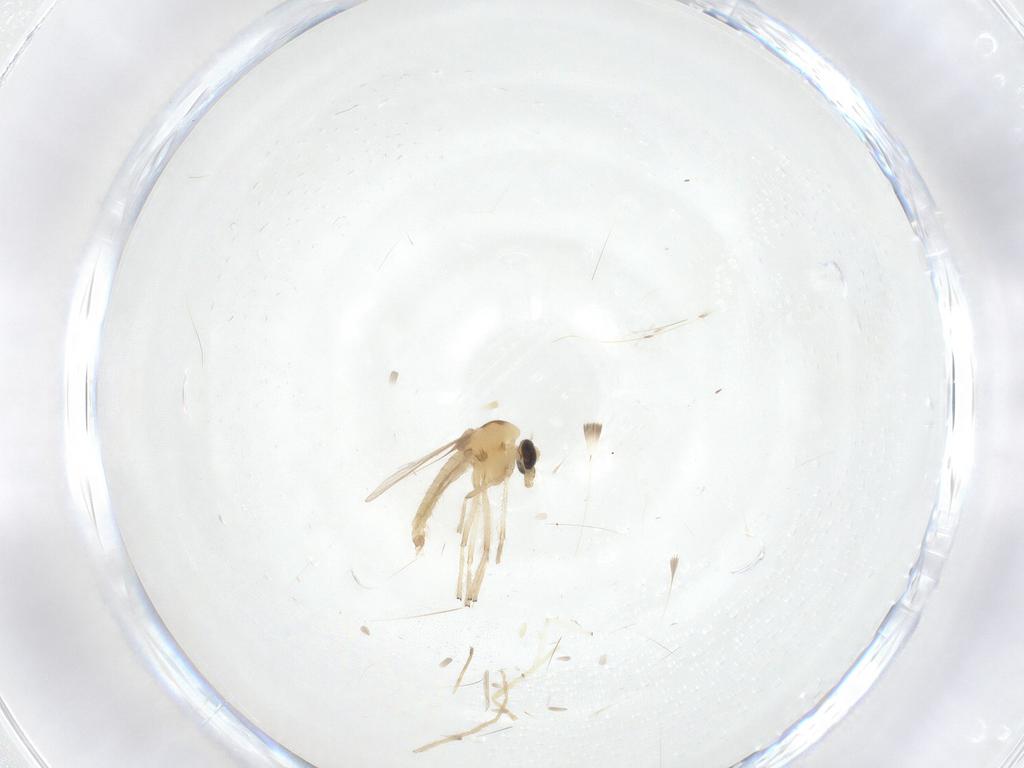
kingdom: Animalia
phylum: Arthropoda
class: Insecta
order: Diptera
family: Chironomidae
